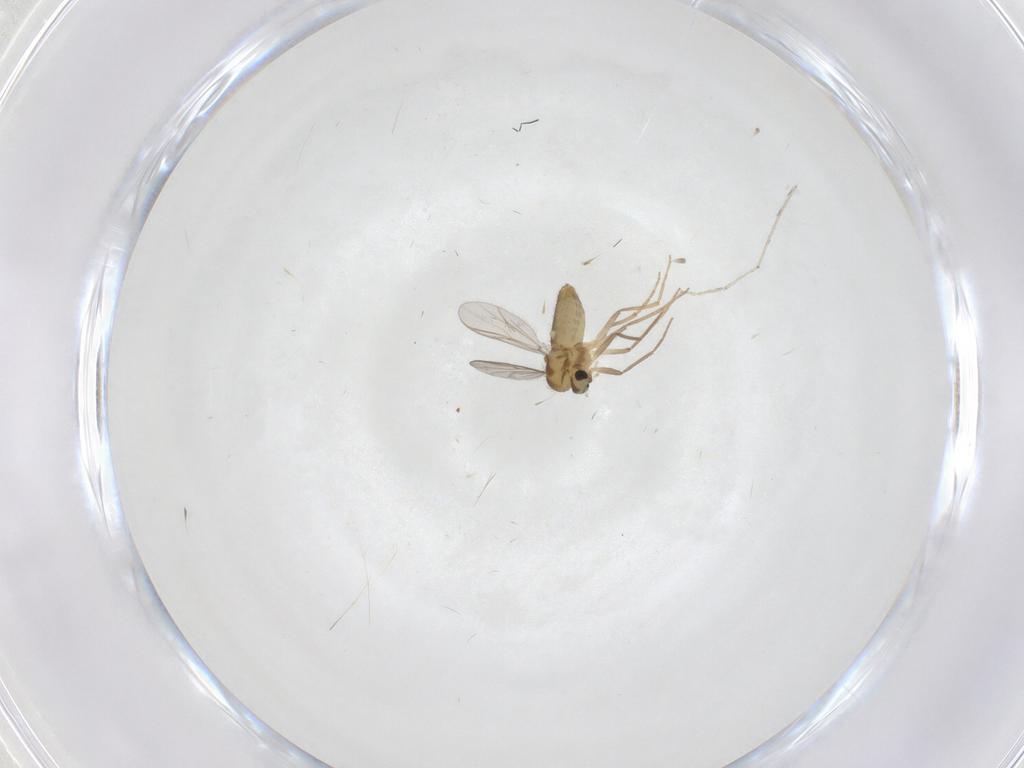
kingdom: Animalia
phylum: Arthropoda
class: Insecta
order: Diptera
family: Chironomidae
